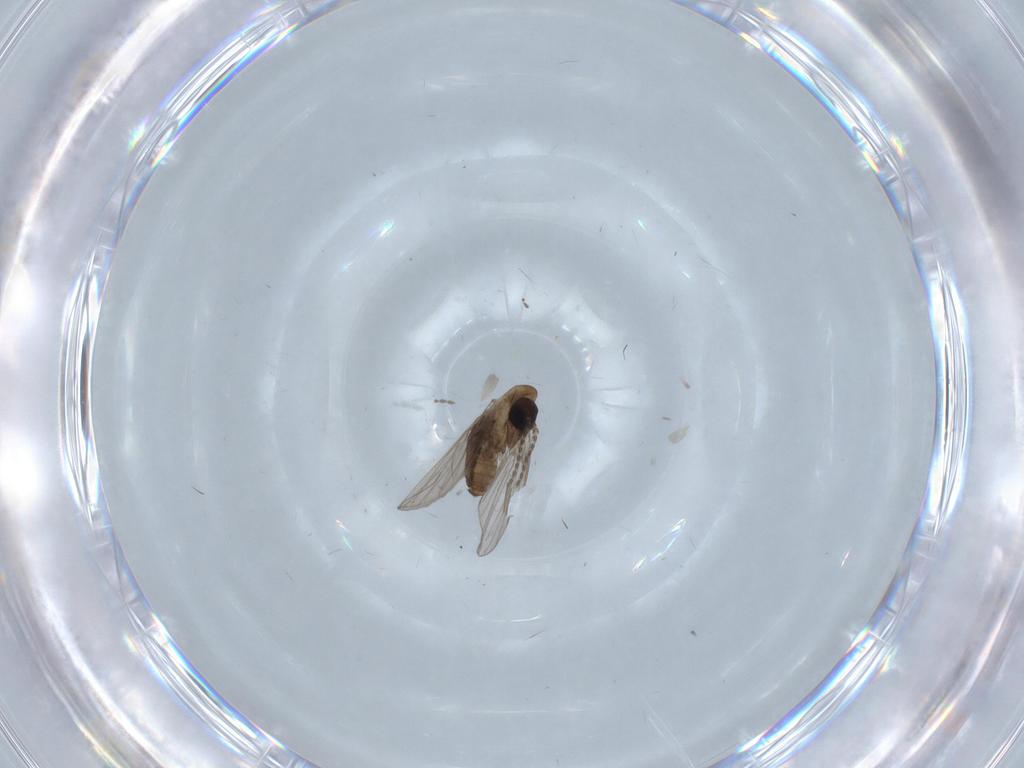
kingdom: Animalia
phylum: Arthropoda
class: Insecta
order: Diptera
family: Psychodidae
